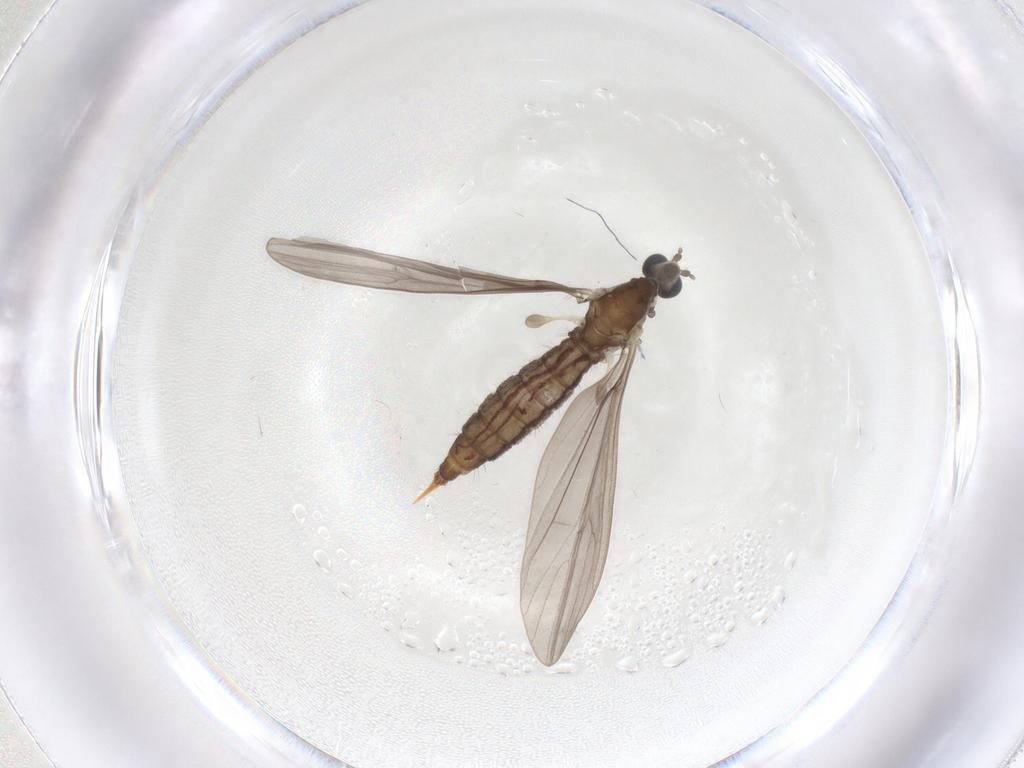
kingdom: Animalia
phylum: Arthropoda
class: Insecta
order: Diptera
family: Limoniidae
